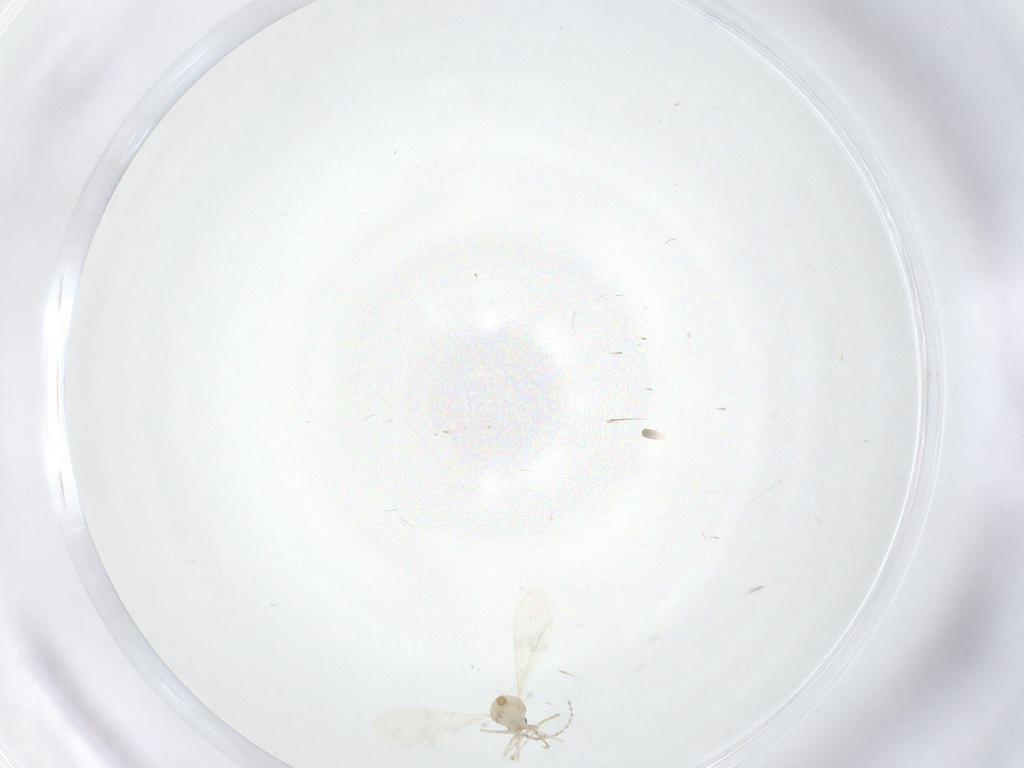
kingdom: Animalia
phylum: Arthropoda
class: Insecta
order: Diptera
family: Cecidomyiidae
